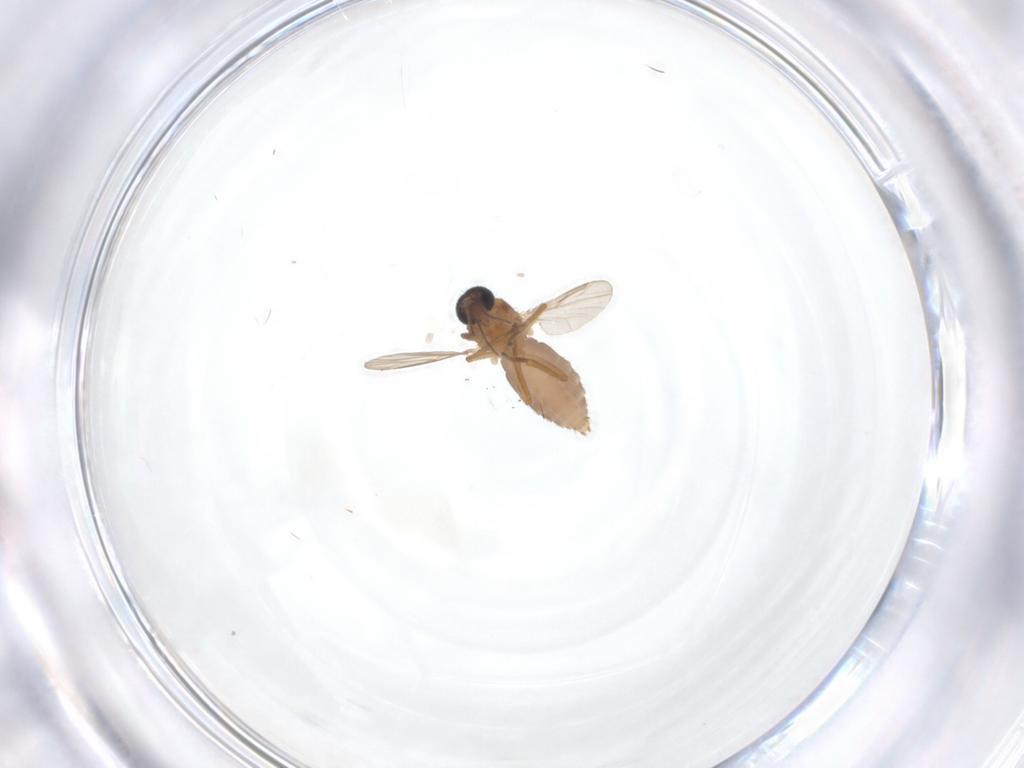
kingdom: Animalia
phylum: Arthropoda
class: Insecta
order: Diptera
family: Ceratopogonidae
